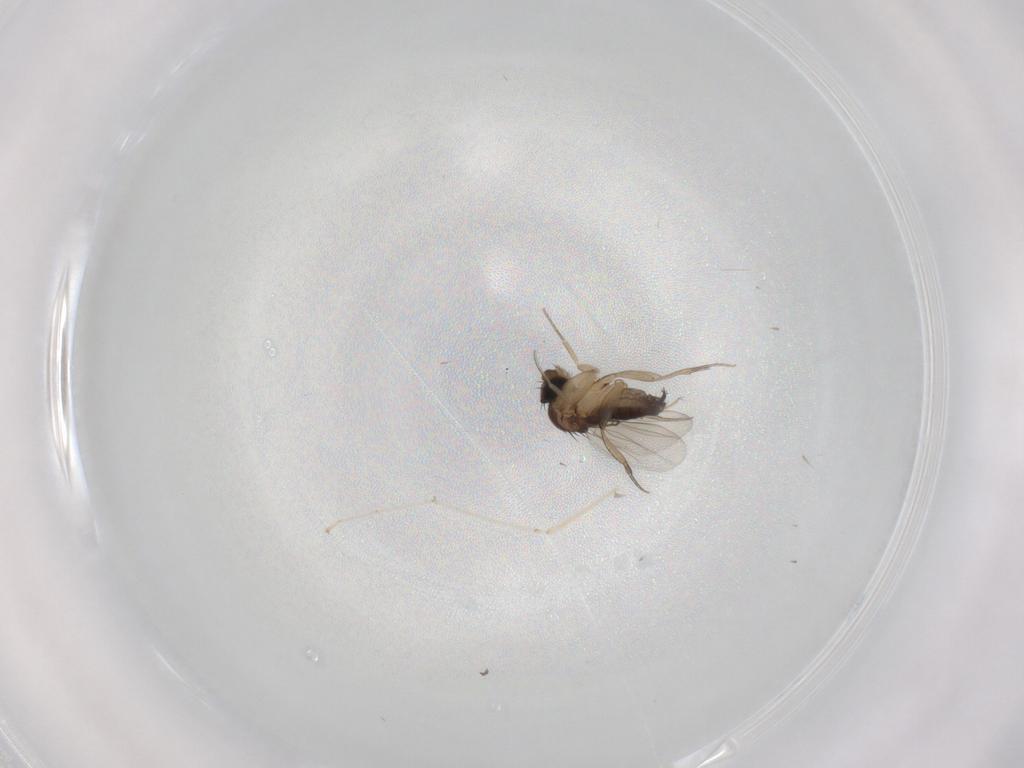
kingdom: Animalia
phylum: Arthropoda
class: Insecta
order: Diptera
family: Phoridae
